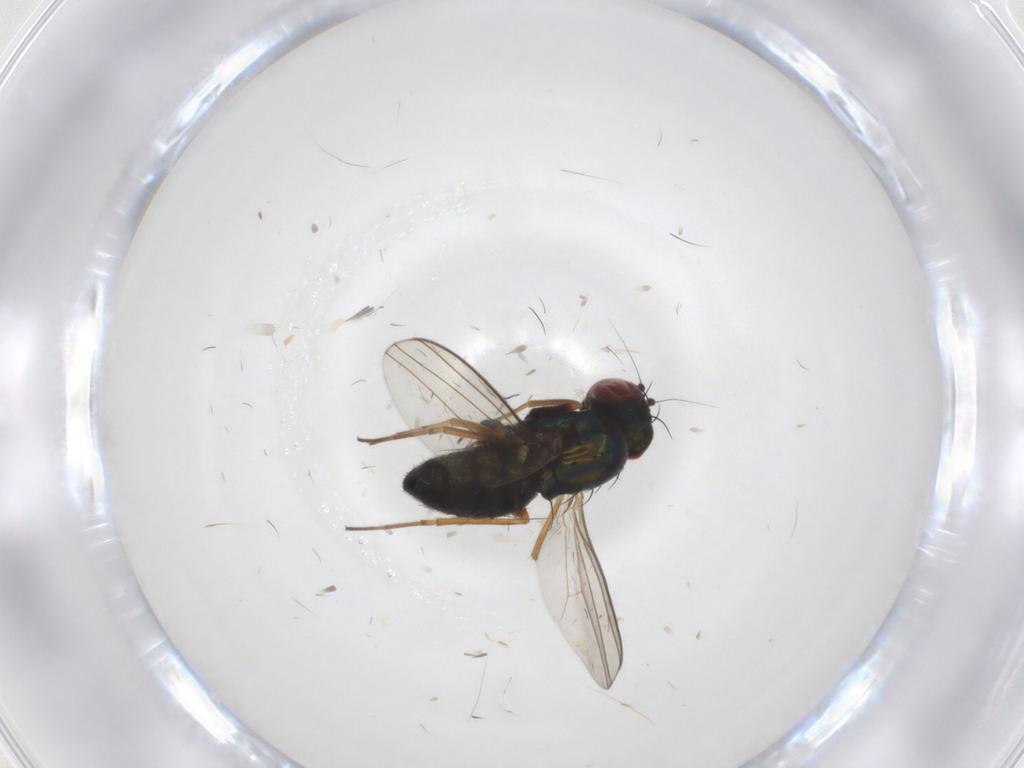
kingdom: Animalia
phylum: Arthropoda
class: Insecta
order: Diptera
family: Dolichopodidae
